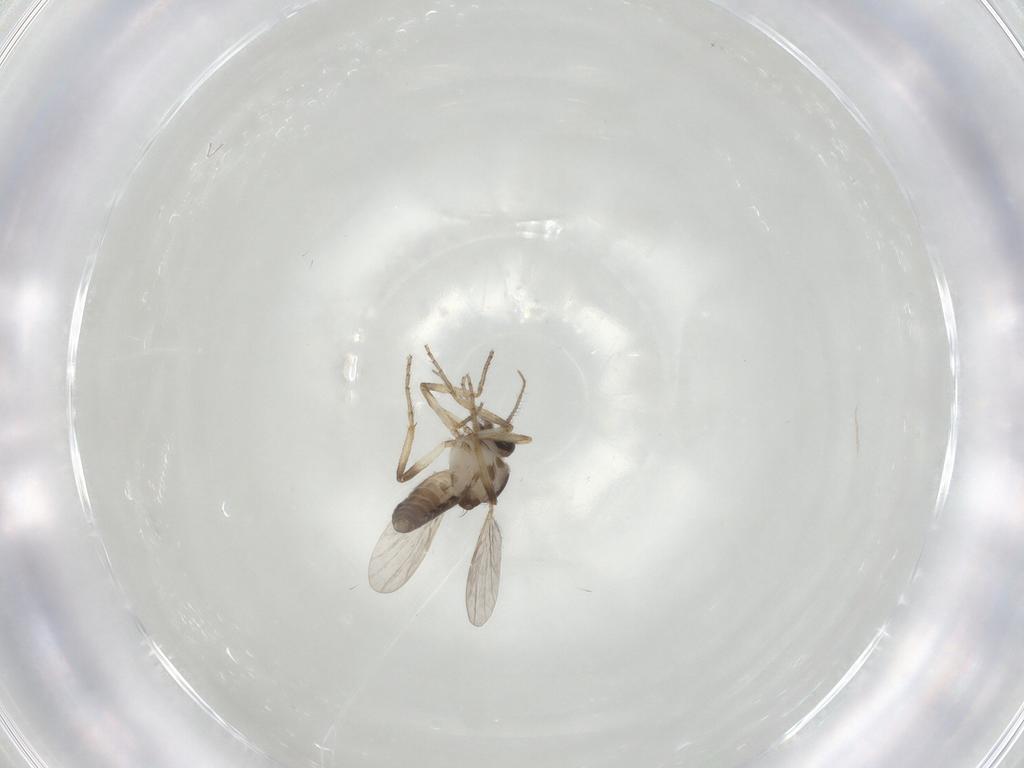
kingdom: Animalia
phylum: Arthropoda
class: Insecta
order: Diptera
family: Ceratopogonidae
